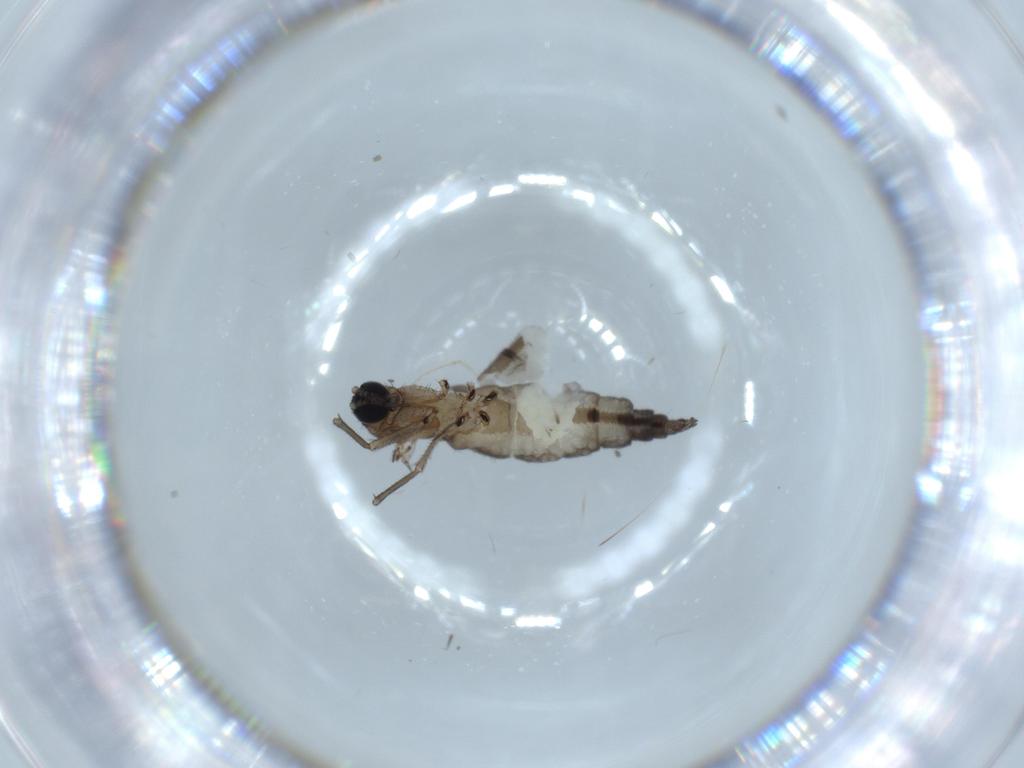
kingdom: Animalia
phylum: Arthropoda
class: Insecta
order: Diptera
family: Sciaridae
